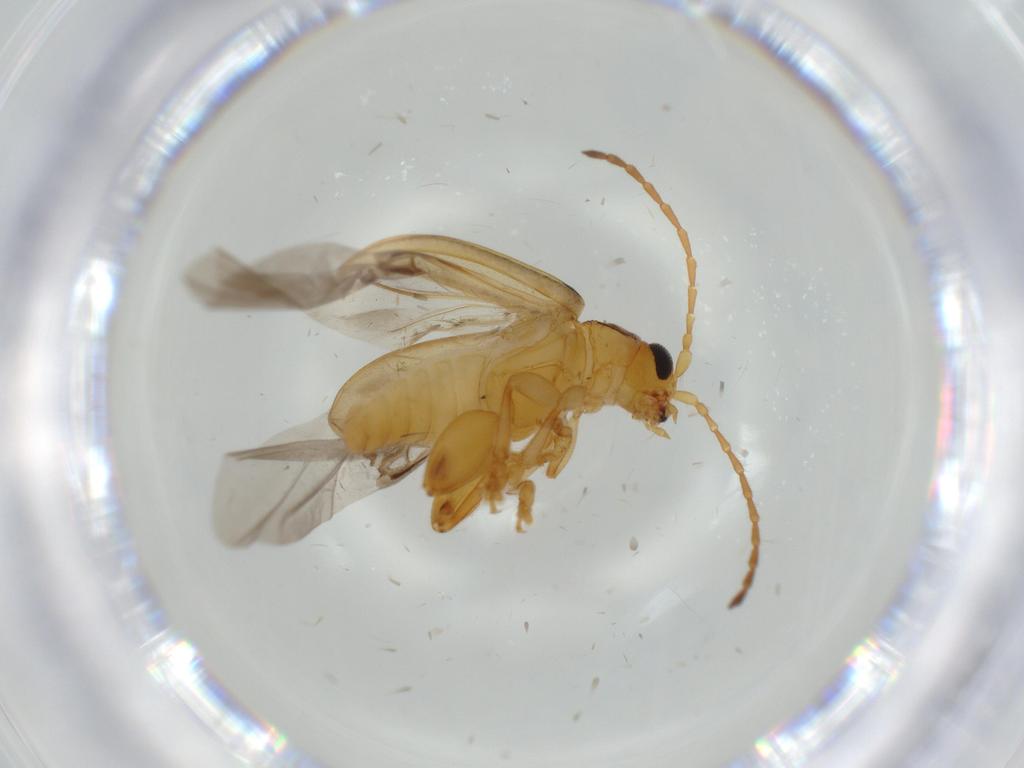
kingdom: Animalia
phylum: Arthropoda
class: Insecta
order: Coleoptera
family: Chrysomelidae
